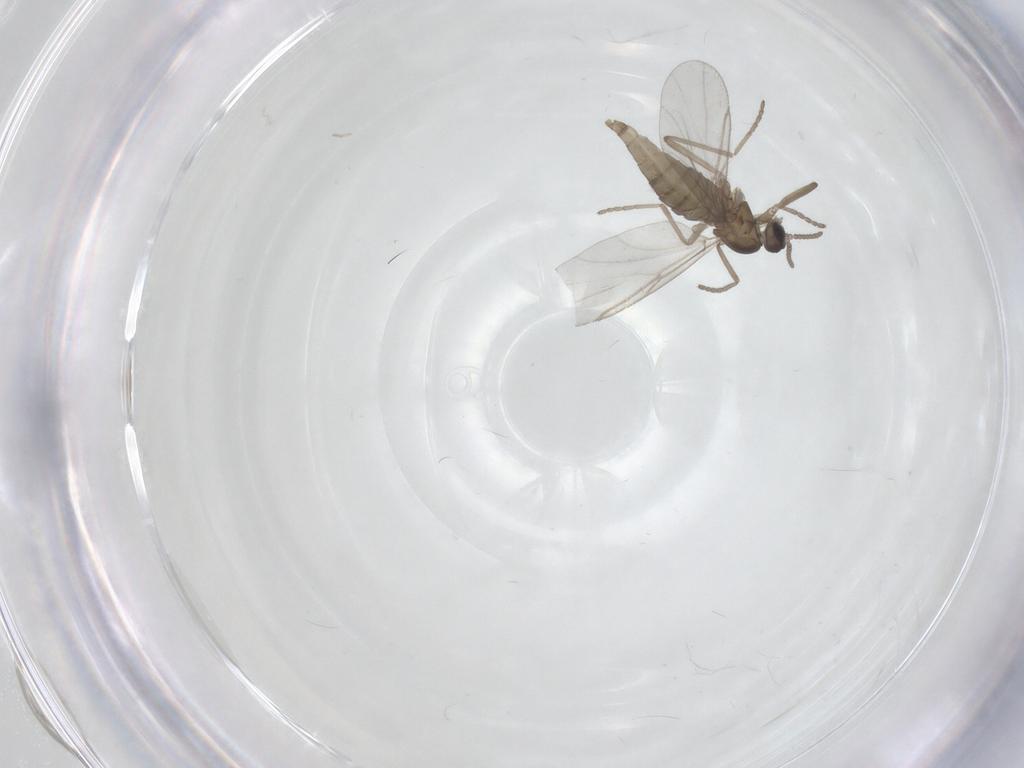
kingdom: Animalia
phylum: Arthropoda
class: Insecta
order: Diptera
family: Cecidomyiidae
